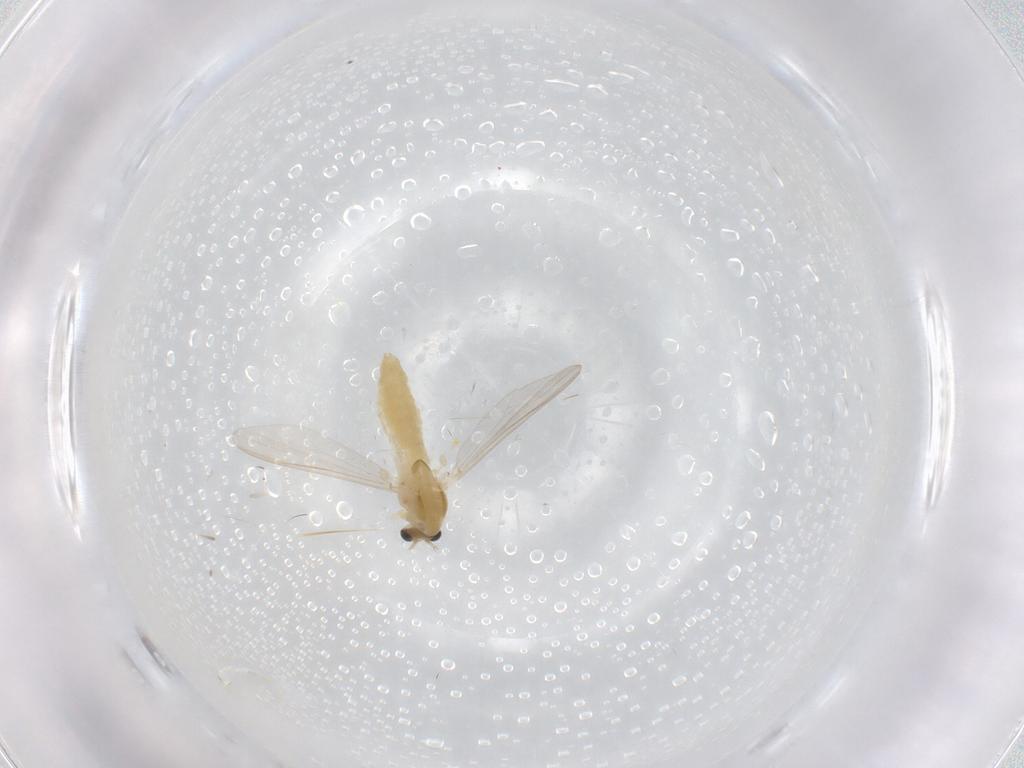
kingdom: Animalia
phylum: Arthropoda
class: Insecta
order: Diptera
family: Chironomidae
